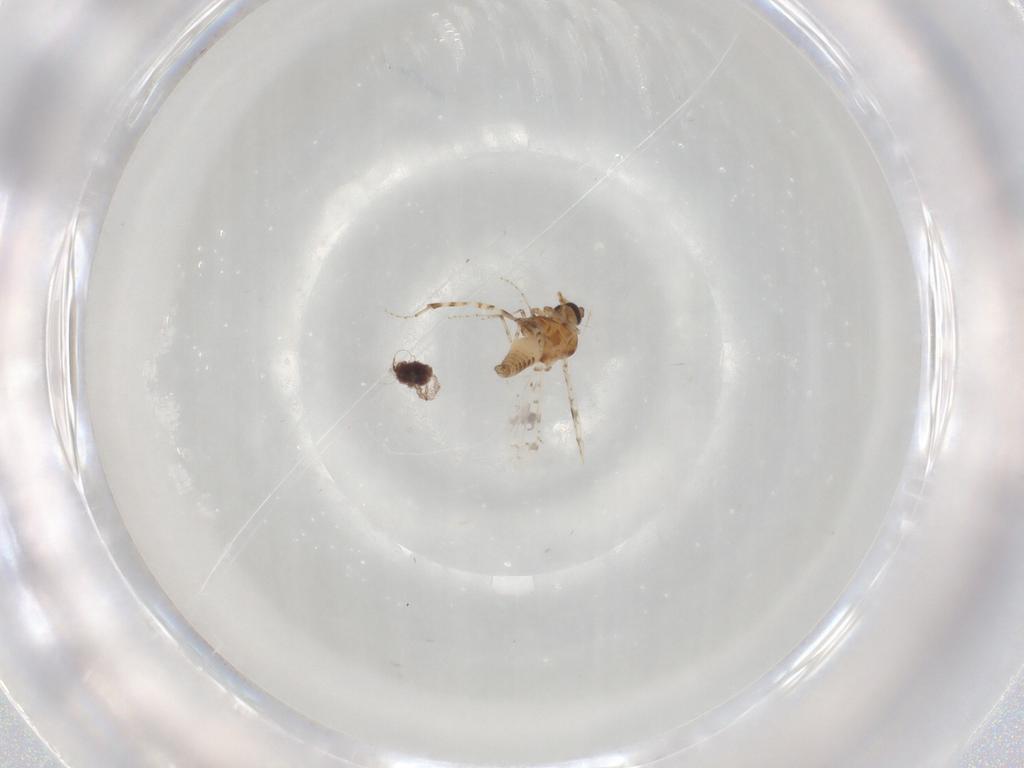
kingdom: Animalia
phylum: Arthropoda
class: Insecta
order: Diptera
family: Ceratopogonidae
